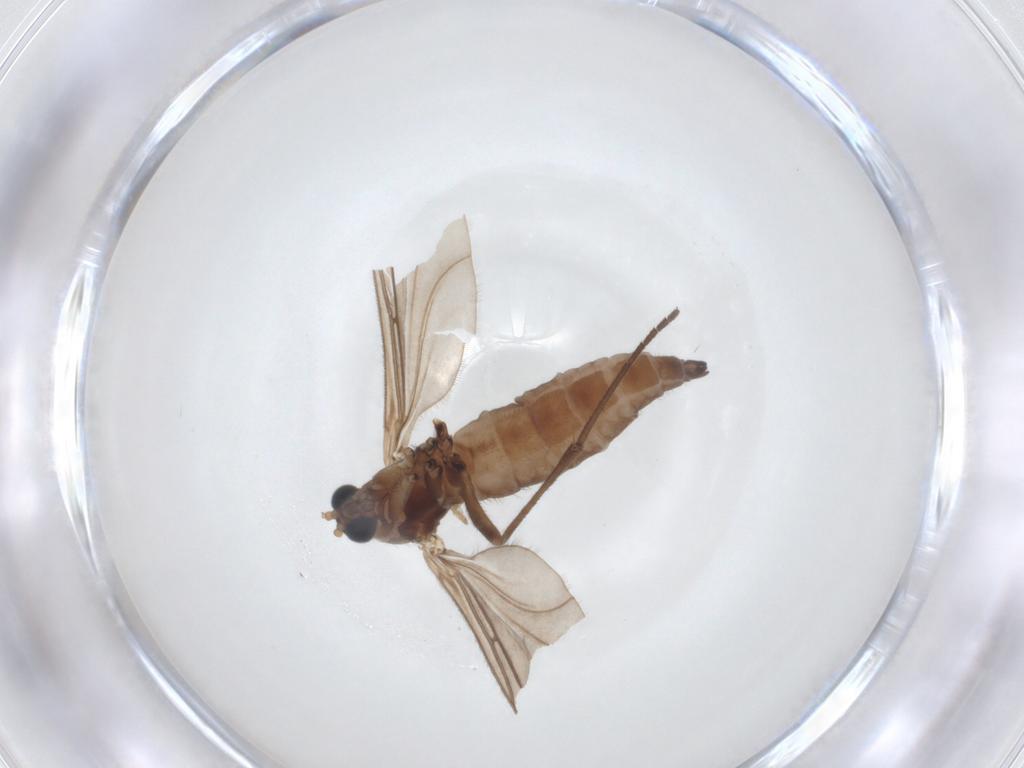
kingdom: Animalia
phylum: Arthropoda
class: Insecta
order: Diptera
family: Sciaridae
